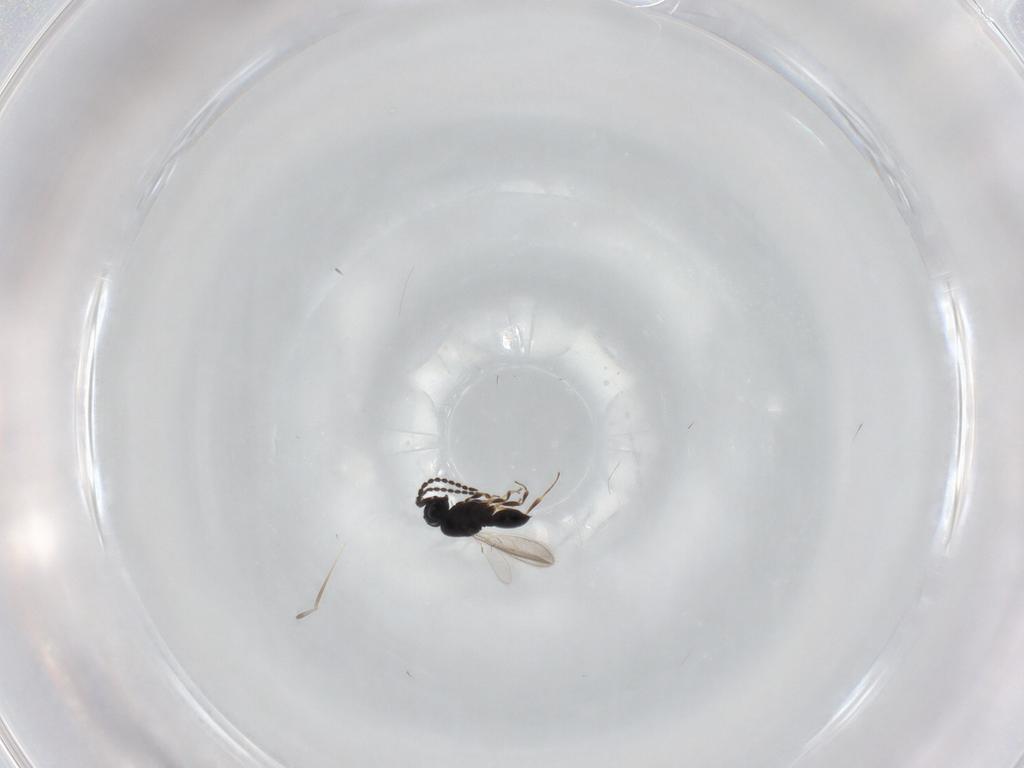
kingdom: Animalia
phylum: Arthropoda
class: Insecta
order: Hymenoptera
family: Scelionidae
